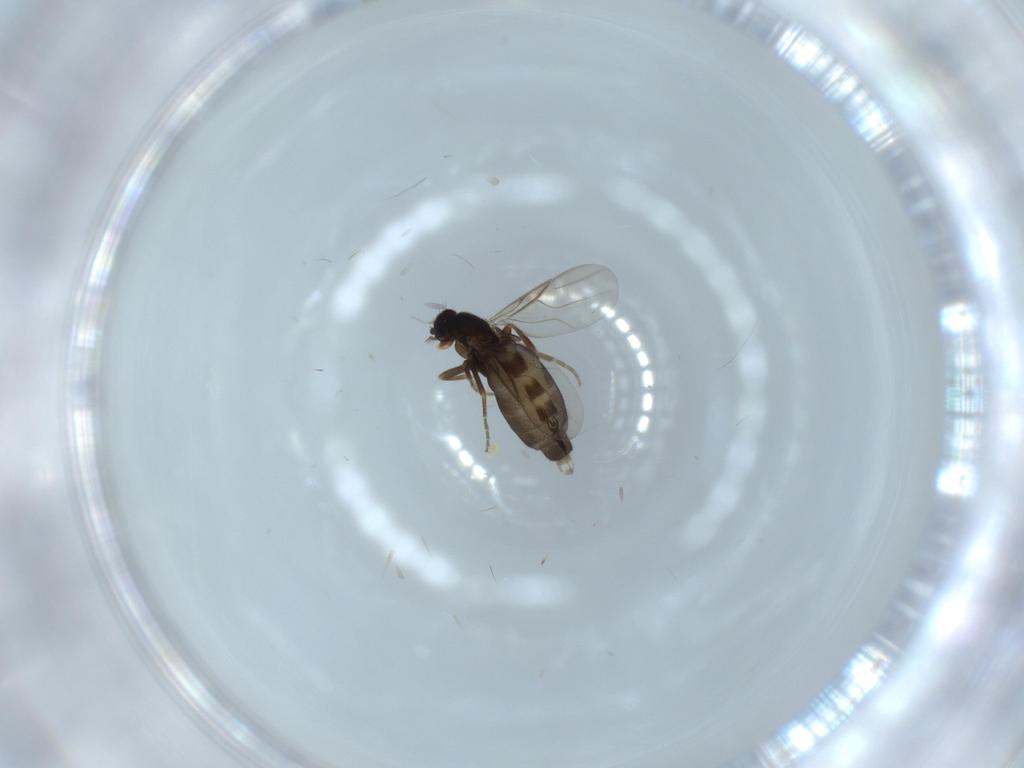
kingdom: Animalia
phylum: Arthropoda
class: Insecta
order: Diptera
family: Phoridae
